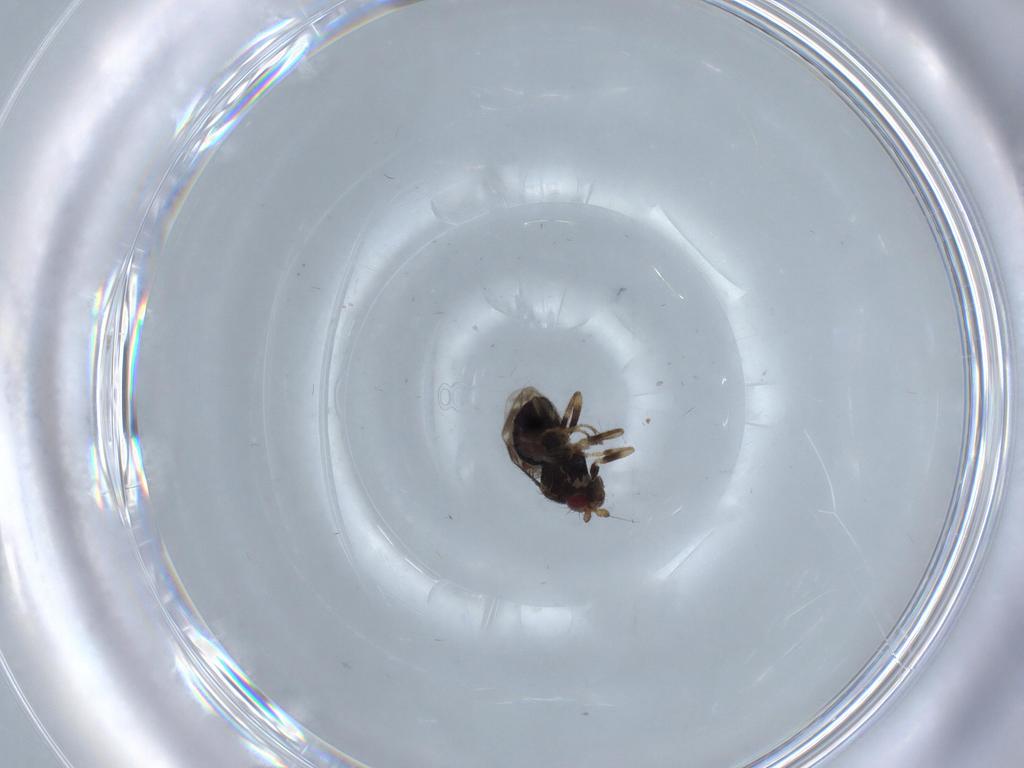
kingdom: Animalia
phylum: Arthropoda
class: Insecta
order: Diptera
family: Sphaeroceridae
